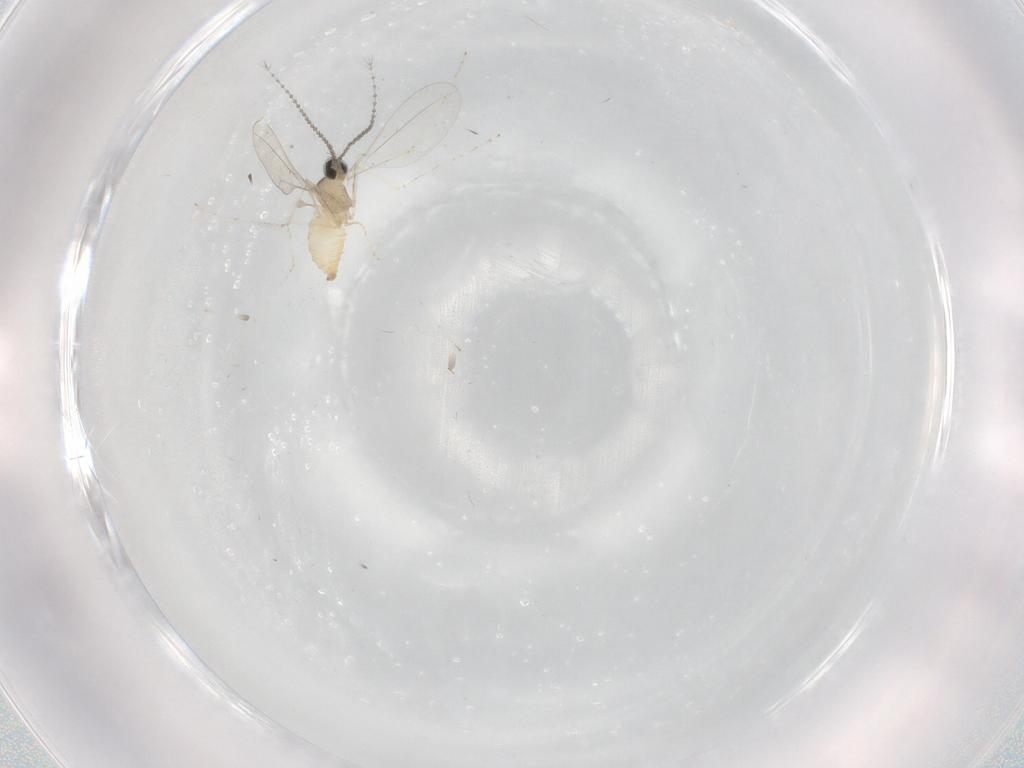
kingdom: Animalia
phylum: Arthropoda
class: Insecta
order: Diptera
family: Cecidomyiidae
